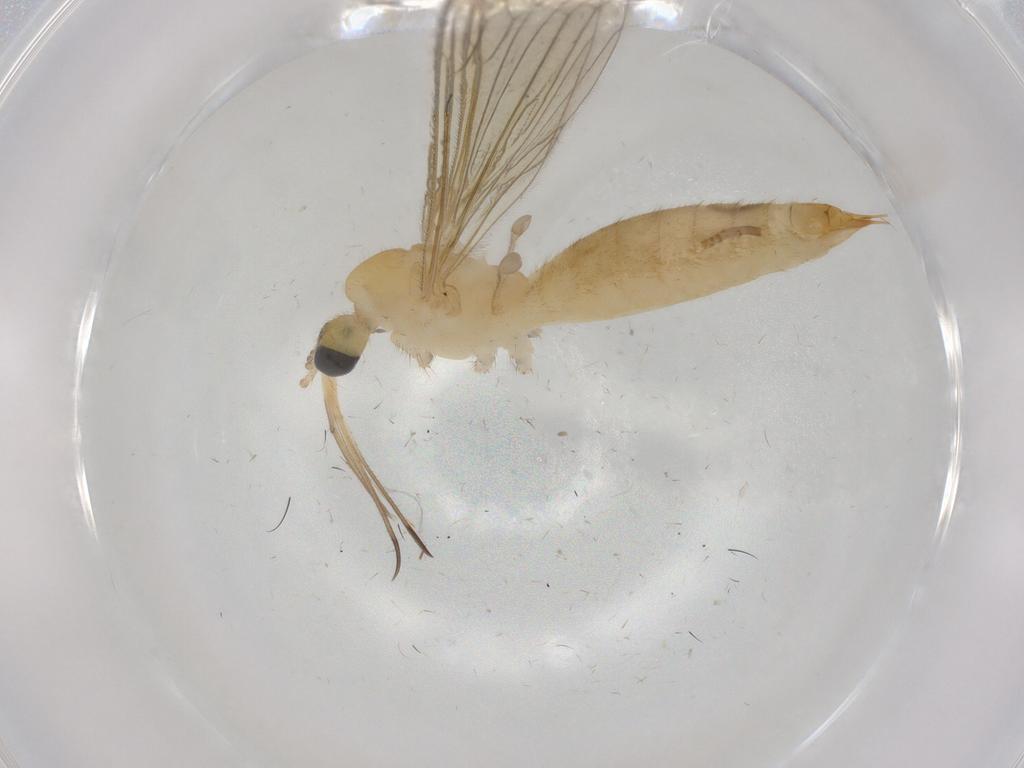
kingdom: Animalia
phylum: Arthropoda
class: Insecta
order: Diptera
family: Limoniidae
